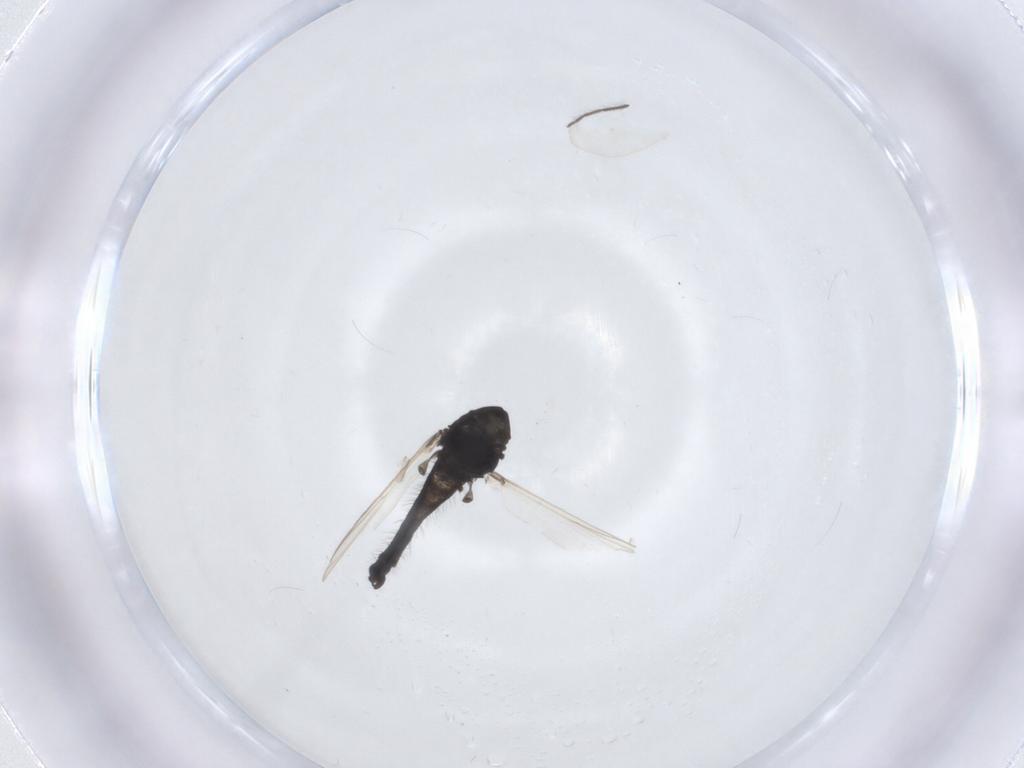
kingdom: Animalia
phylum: Arthropoda
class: Insecta
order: Diptera
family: Chironomidae
